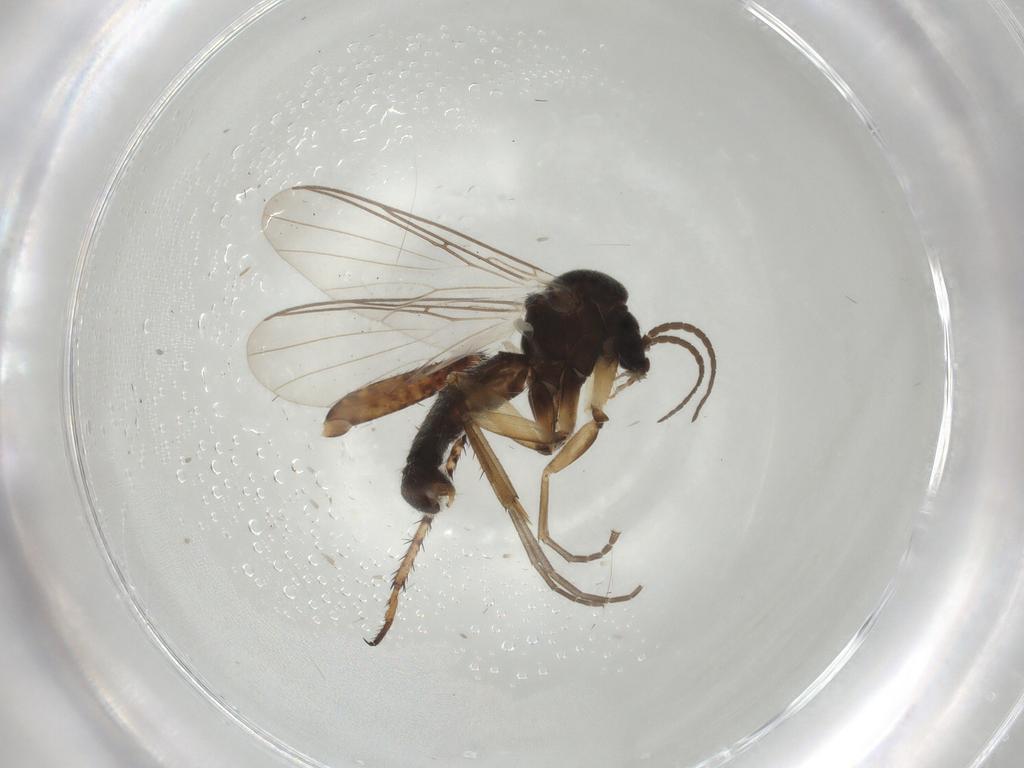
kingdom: Animalia
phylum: Arthropoda
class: Insecta
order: Diptera
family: Mycetophilidae
